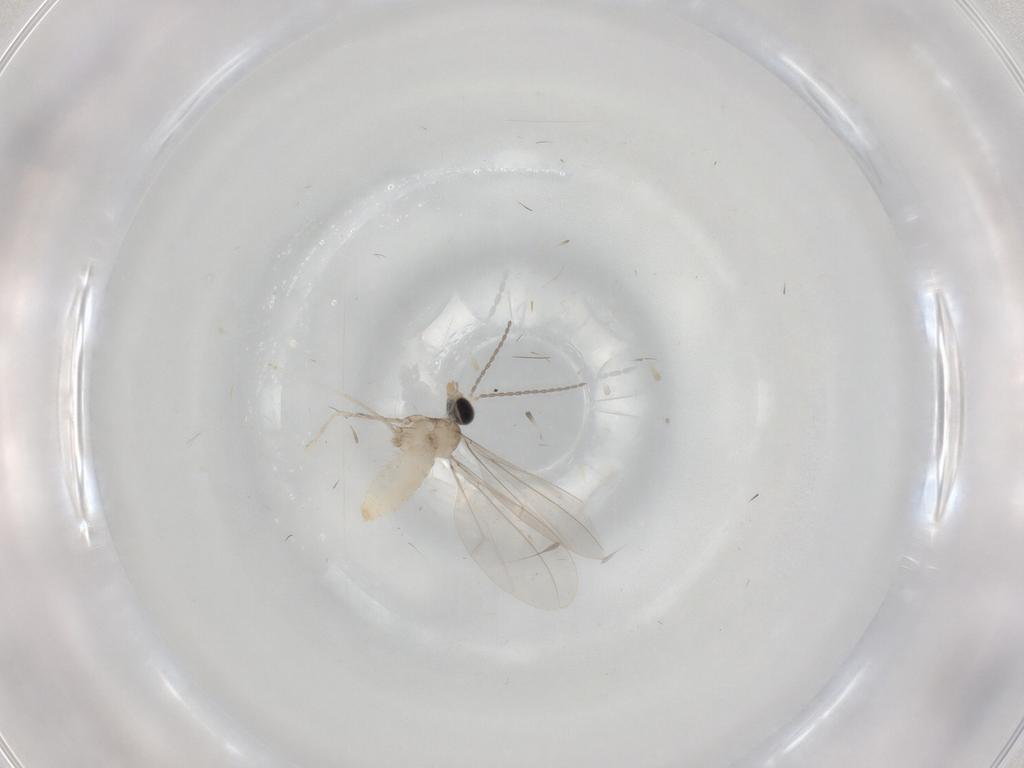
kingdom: Animalia
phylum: Arthropoda
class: Insecta
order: Diptera
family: Cecidomyiidae
